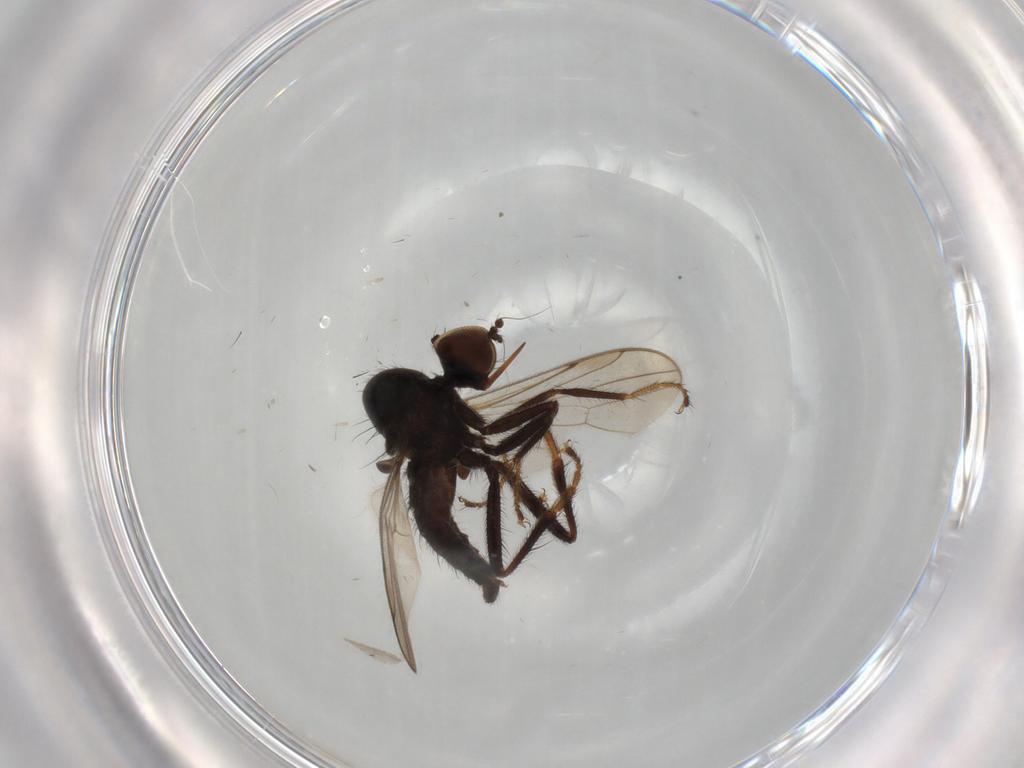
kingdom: Animalia
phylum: Arthropoda
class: Insecta
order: Diptera
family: Hybotidae
